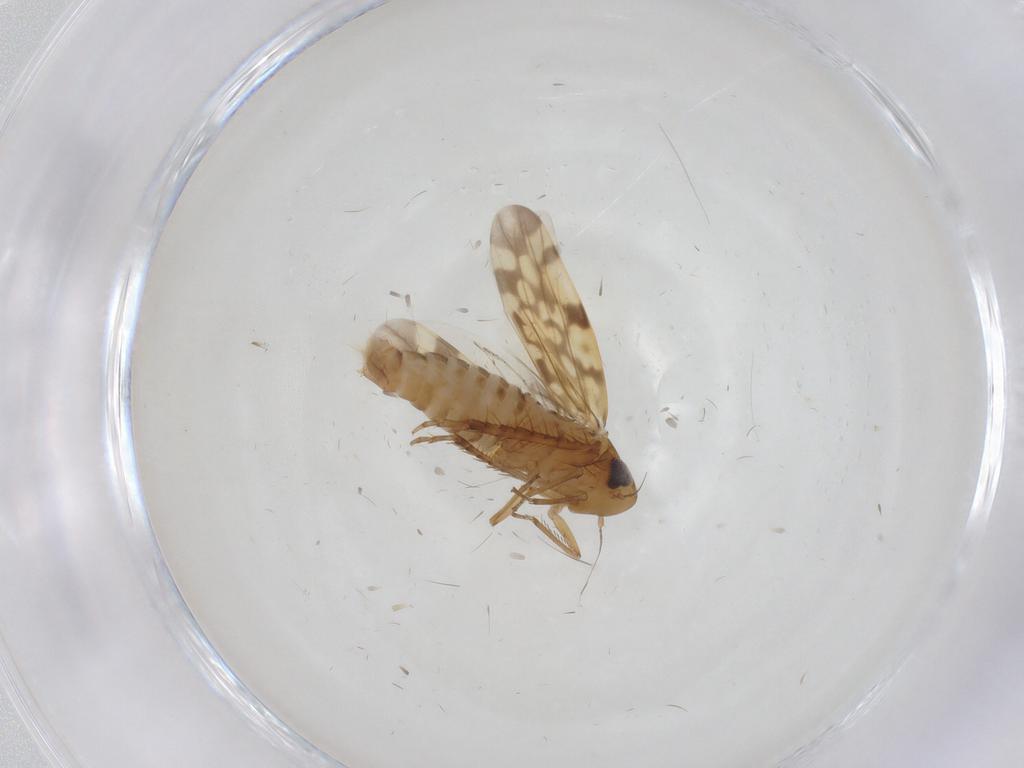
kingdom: Animalia
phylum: Arthropoda
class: Insecta
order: Hemiptera
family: Cicadellidae
